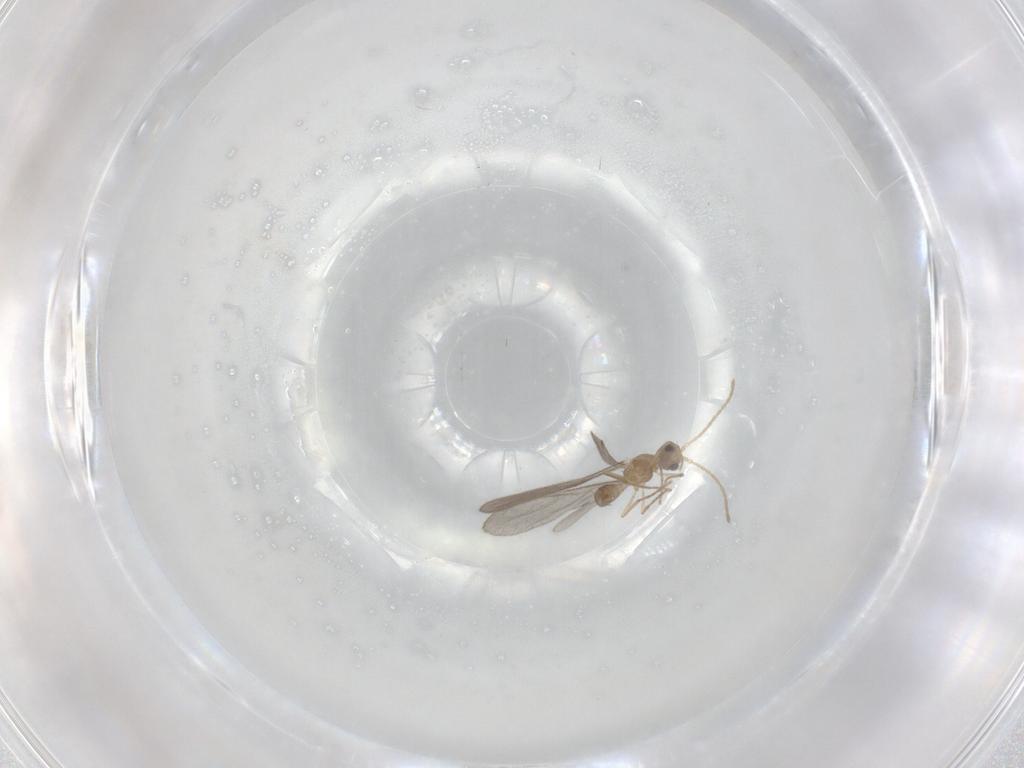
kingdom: Animalia
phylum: Arthropoda
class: Insecta
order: Hymenoptera
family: Formicidae
